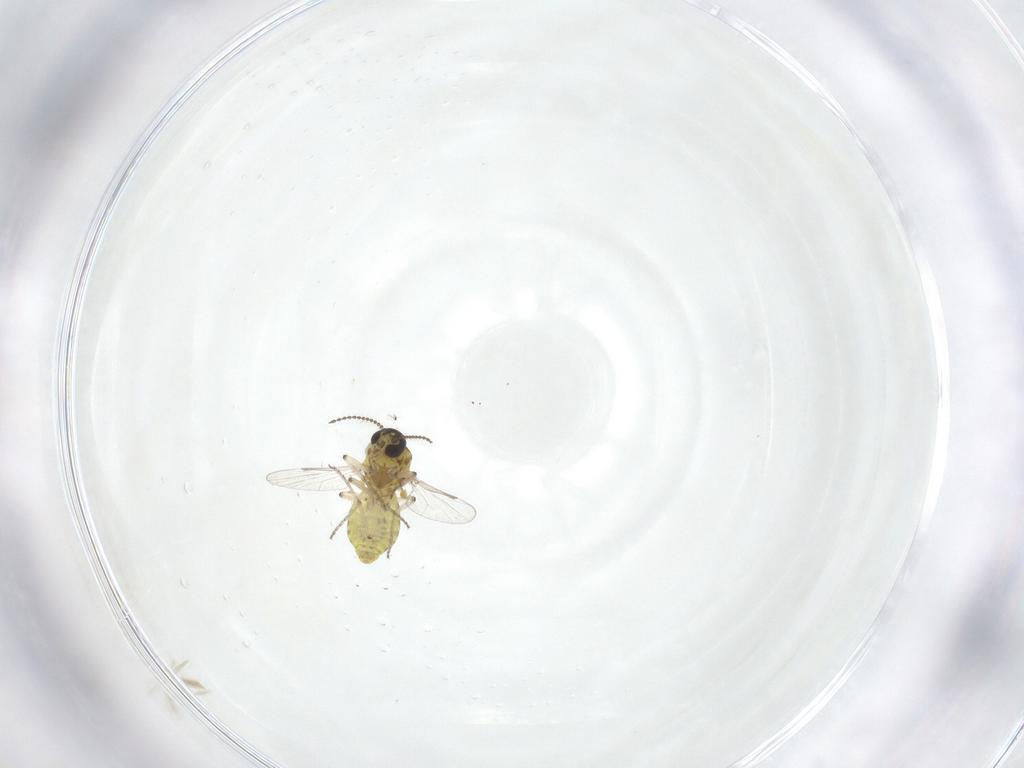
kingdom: Animalia
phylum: Arthropoda
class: Insecta
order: Diptera
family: Ceratopogonidae
